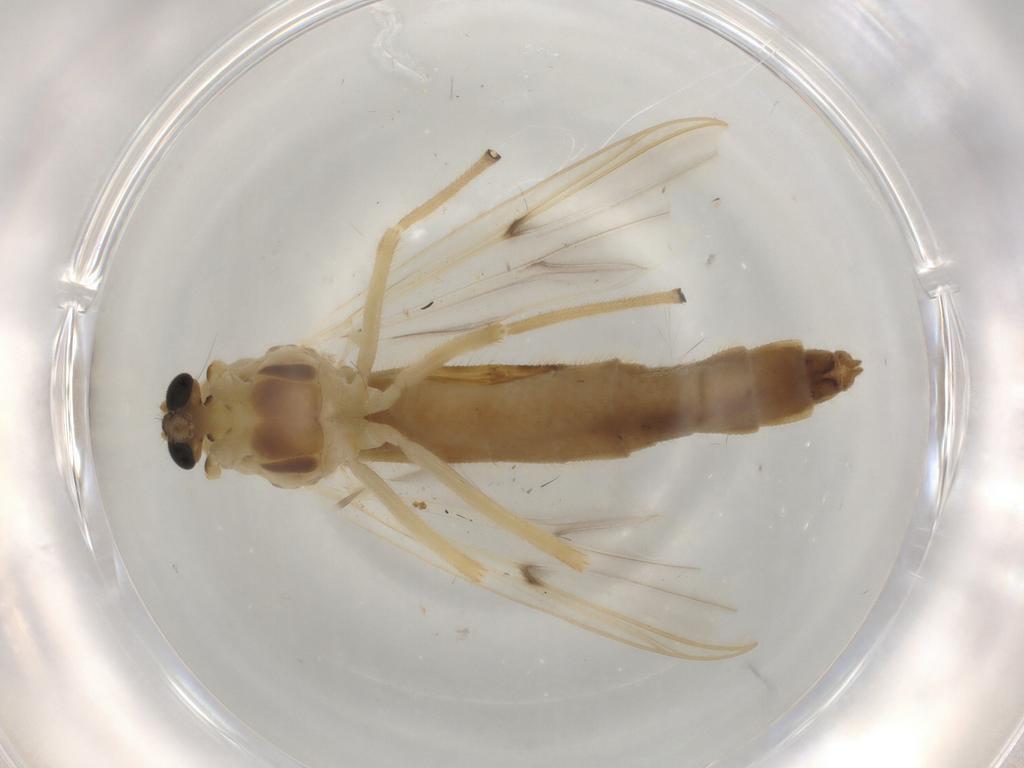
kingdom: Animalia
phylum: Arthropoda
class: Insecta
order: Diptera
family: Chironomidae
